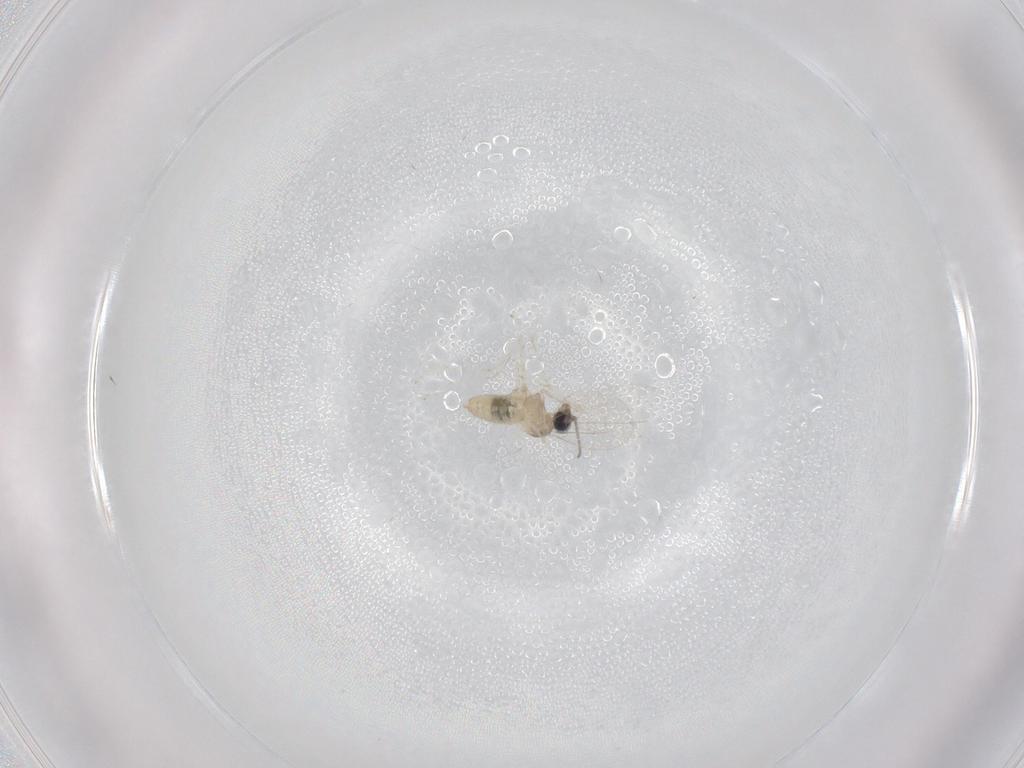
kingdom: Animalia
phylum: Arthropoda
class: Insecta
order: Diptera
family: Cecidomyiidae
